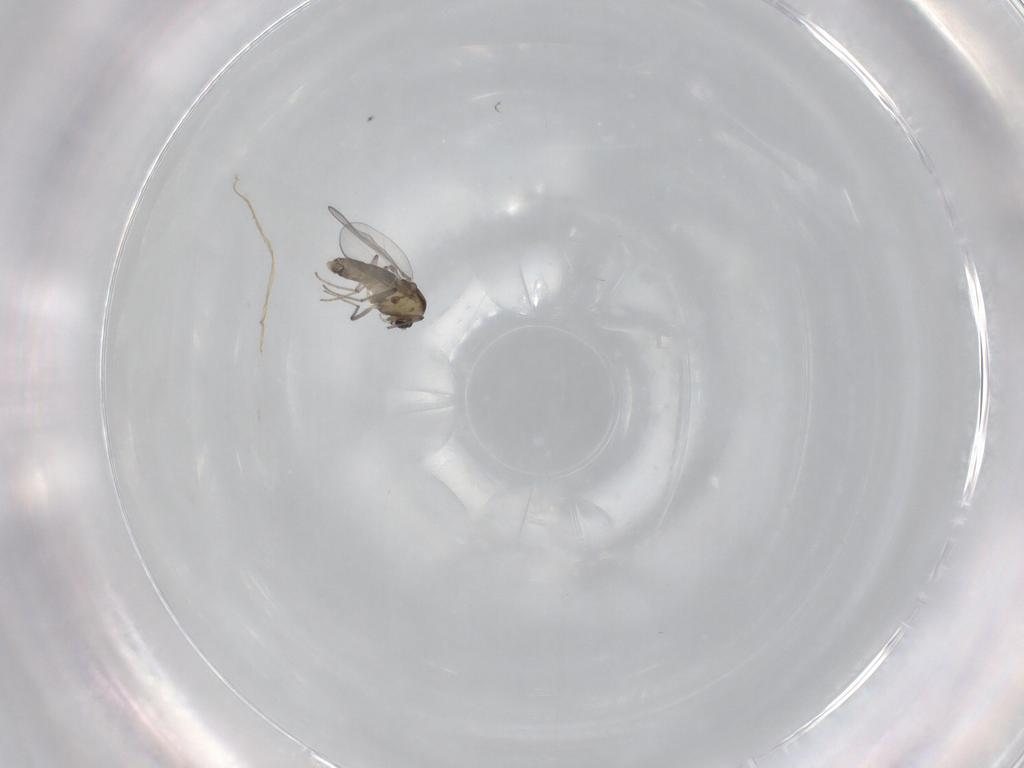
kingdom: Animalia
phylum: Arthropoda
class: Insecta
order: Diptera
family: Chironomidae
